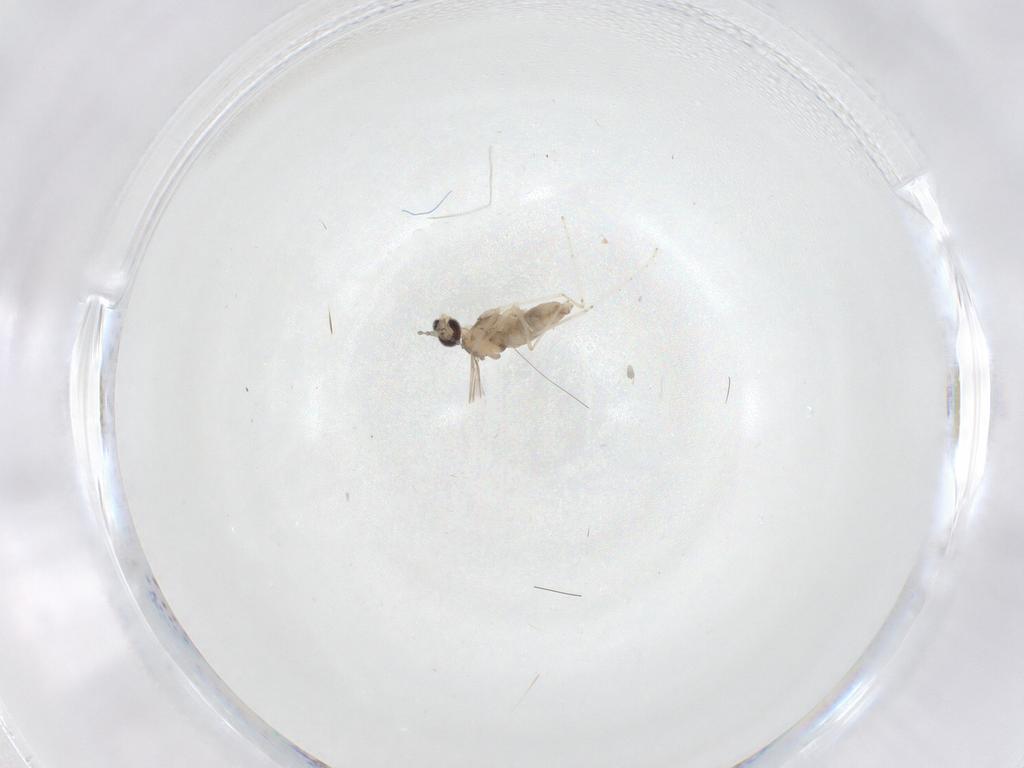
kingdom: Animalia
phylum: Arthropoda
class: Insecta
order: Diptera
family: Cecidomyiidae
